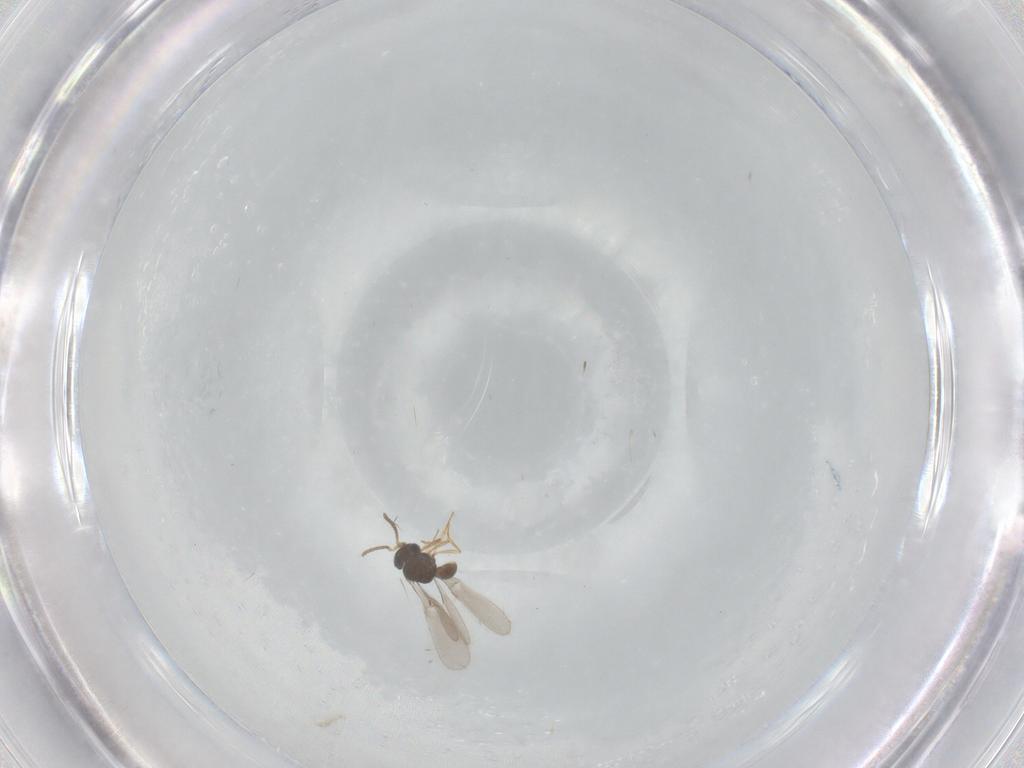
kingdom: Animalia
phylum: Arthropoda
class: Insecta
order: Hymenoptera
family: Scelionidae
